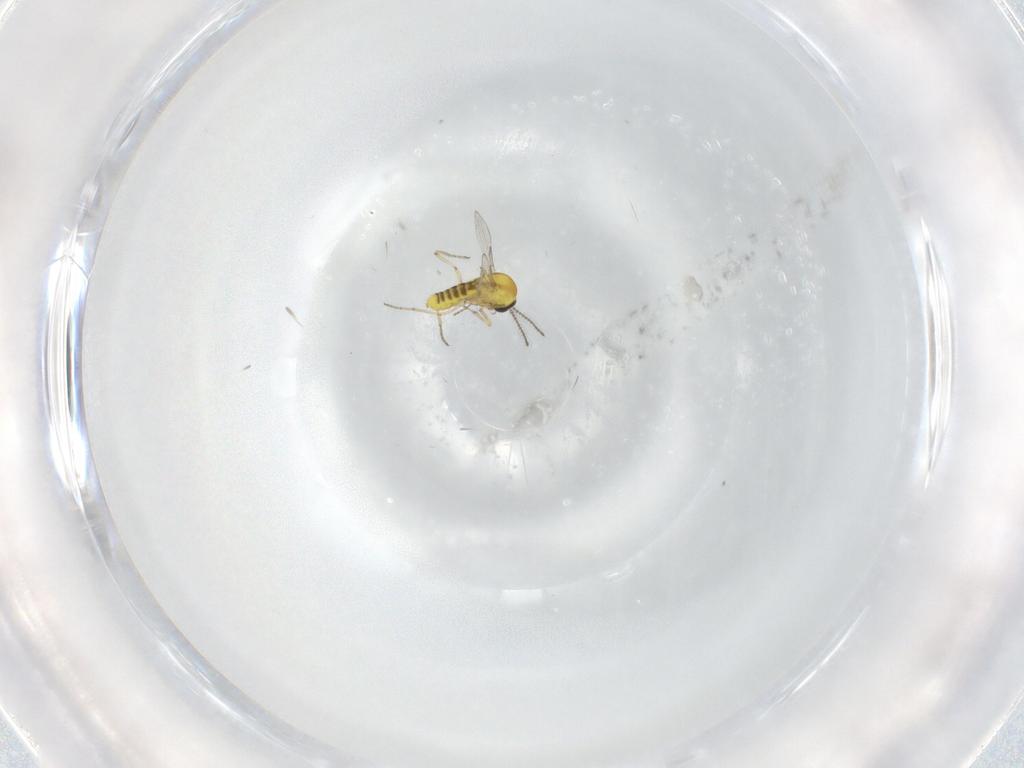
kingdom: Animalia
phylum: Arthropoda
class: Insecta
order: Diptera
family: Ceratopogonidae
